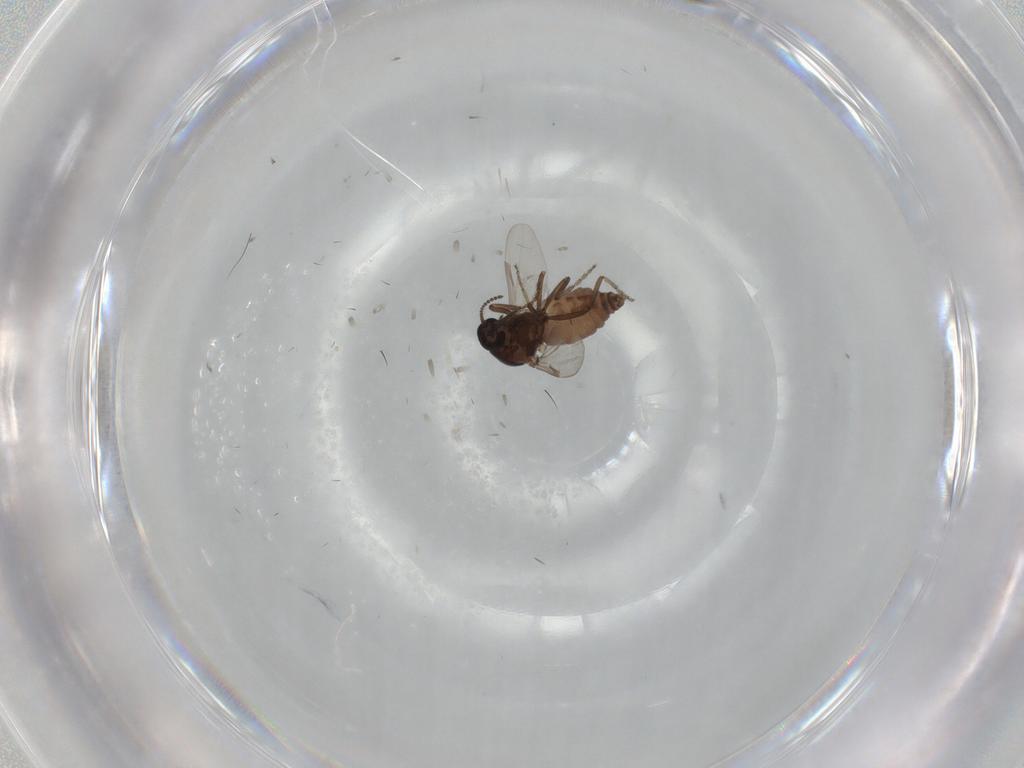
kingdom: Animalia
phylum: Arthropoda
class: Insecta
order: Diptera
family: Ceratopogonidae
